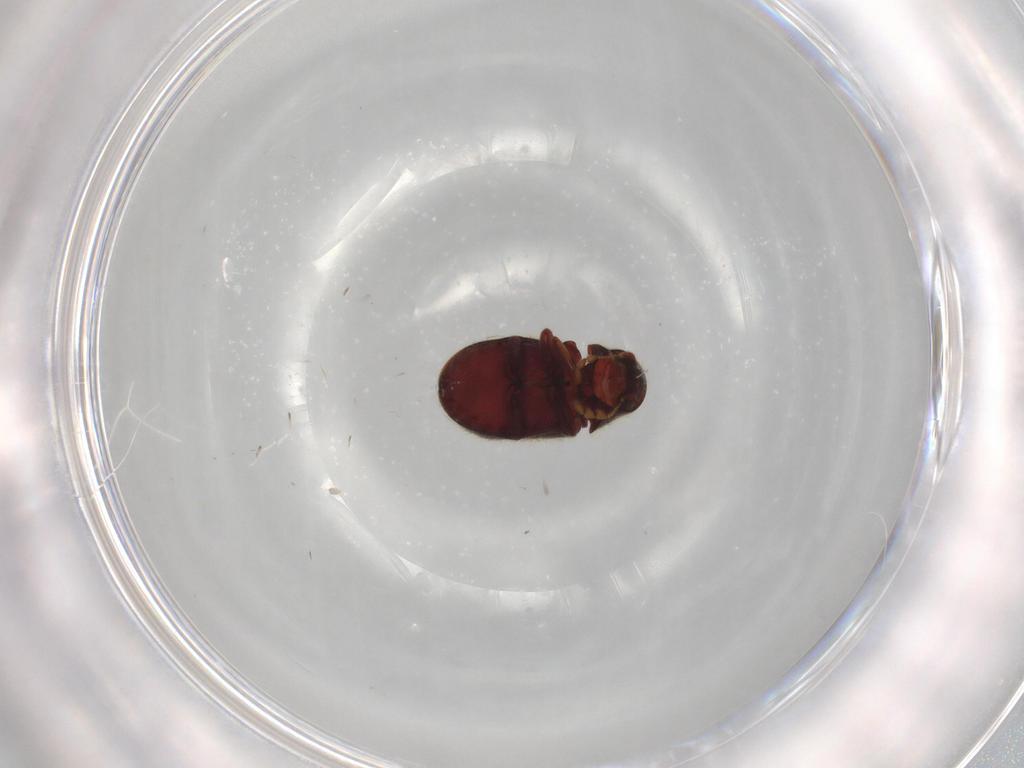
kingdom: Animalia
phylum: Arthropoda
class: Insecta
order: Coleoptera
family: Ptinidae
